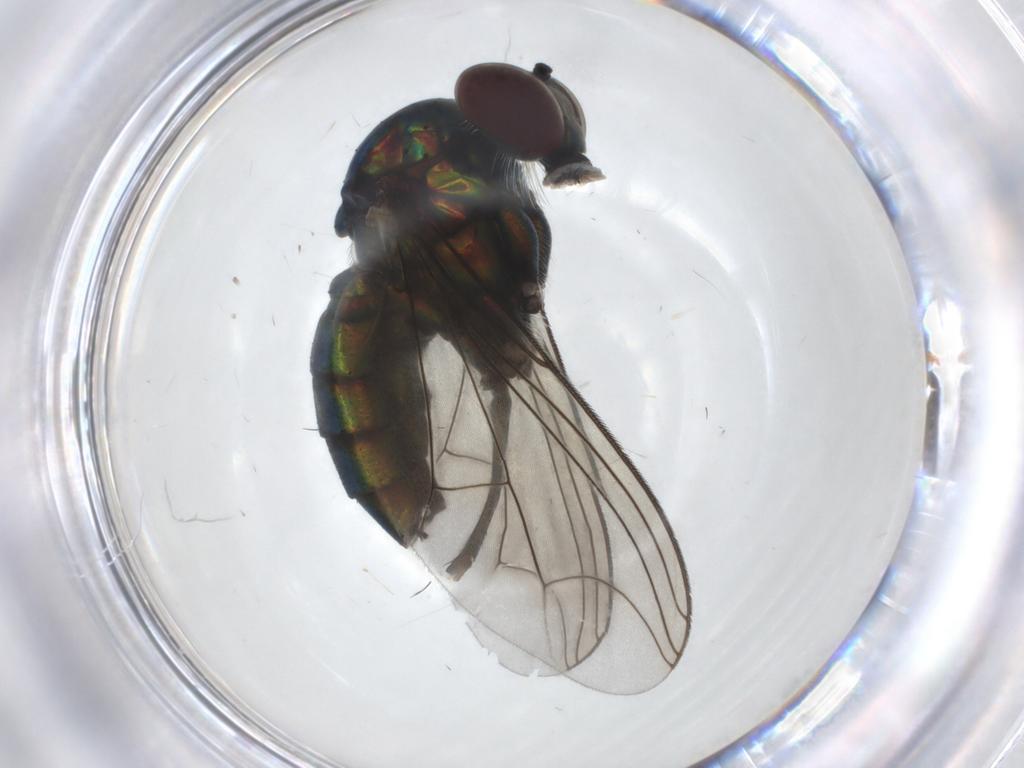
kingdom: Animalia
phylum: Arthropoda
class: Insecta
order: Diptera
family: Dolichopodidae
